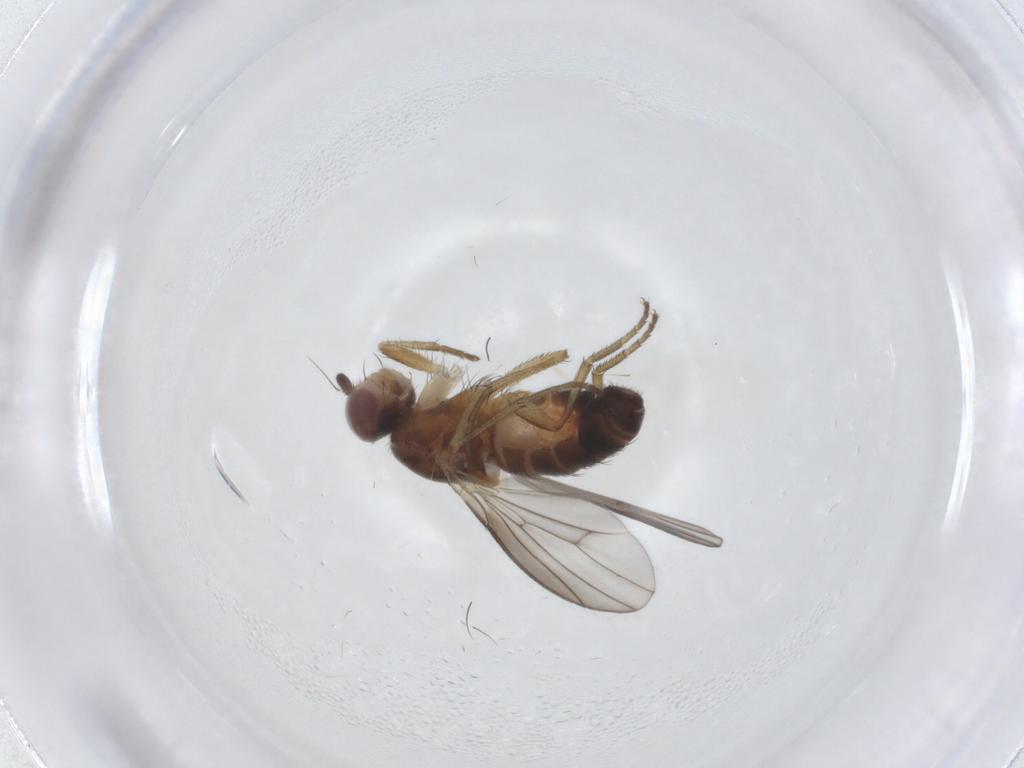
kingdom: Animalia
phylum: Arthropoda
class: Insecta
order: Diptera
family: Heleomyzidae
